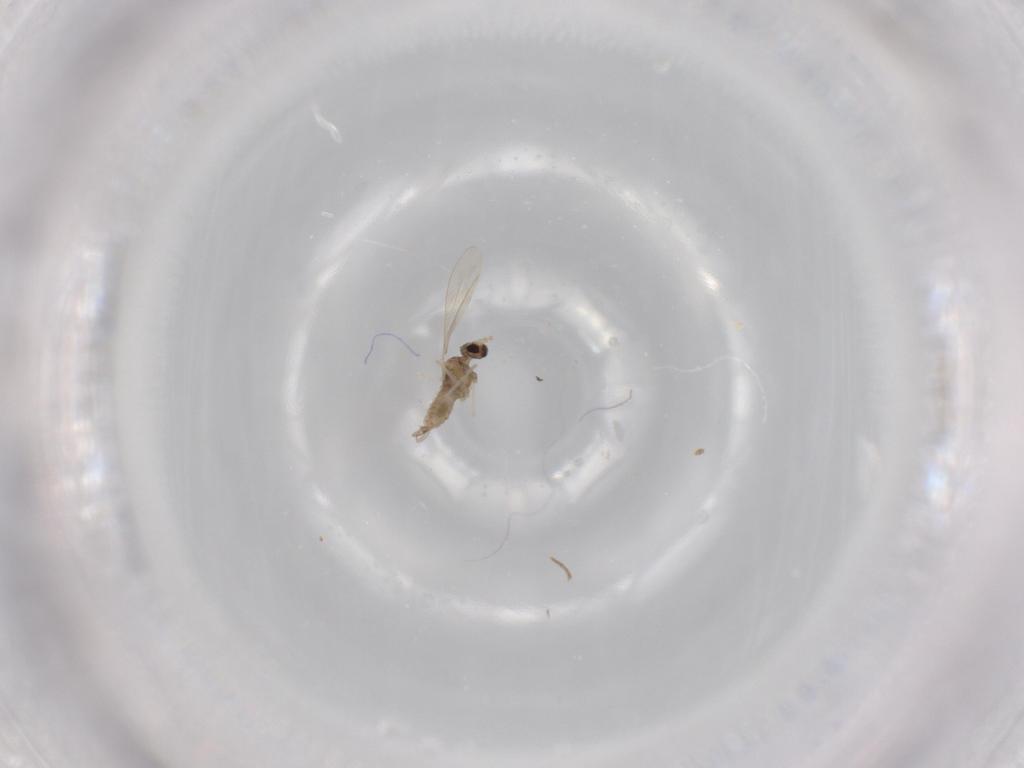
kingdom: Animalia
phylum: Arthropoda
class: Insecta
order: Diptera
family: Cecidomyiidae
